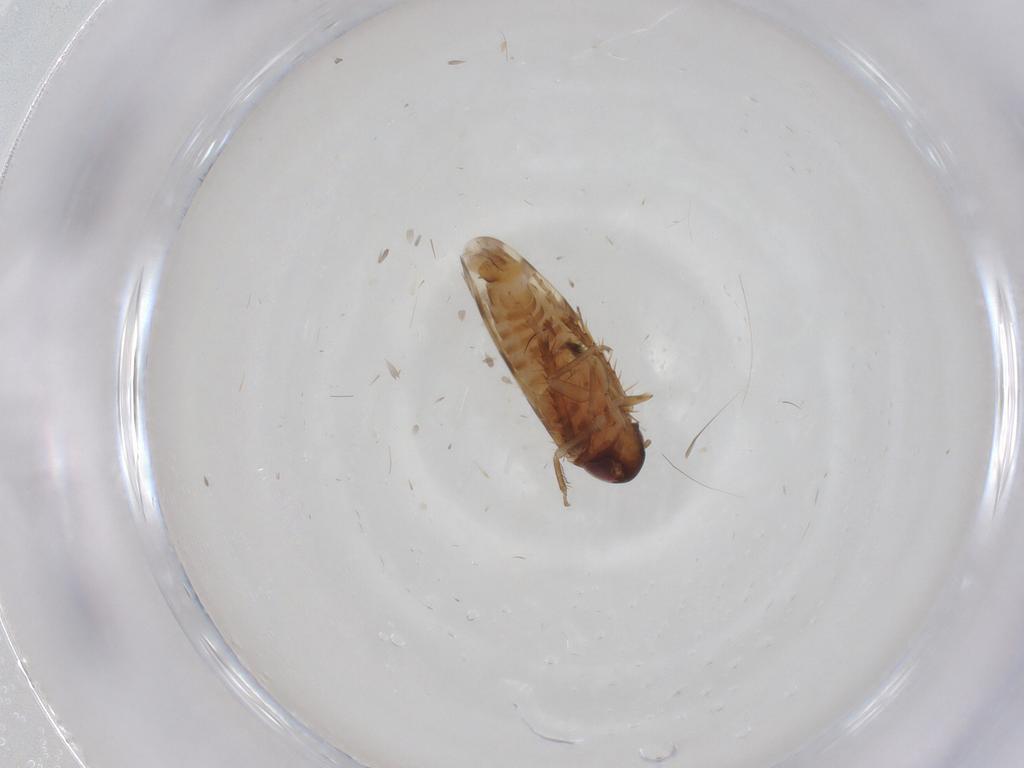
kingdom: Animalia
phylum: Arthropoda
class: Insecta
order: Hemiptera
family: Cicadellidae
